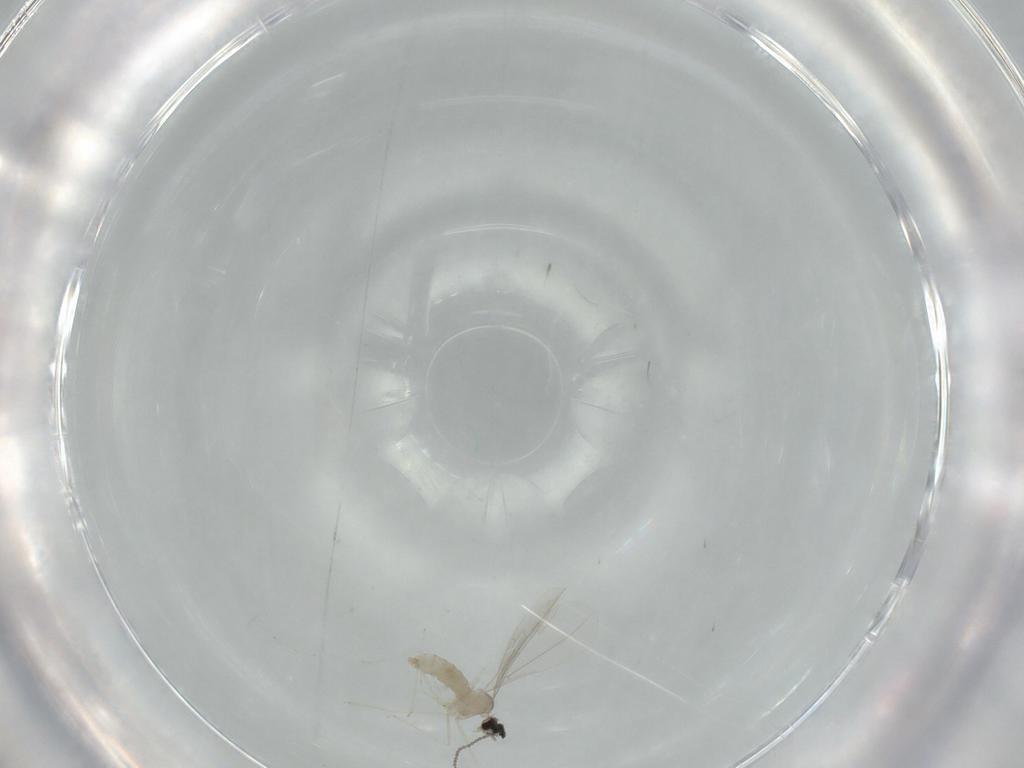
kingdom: Animalia
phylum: Arthropoda
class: Insecta
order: Diptera
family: Cecidomyiidae
